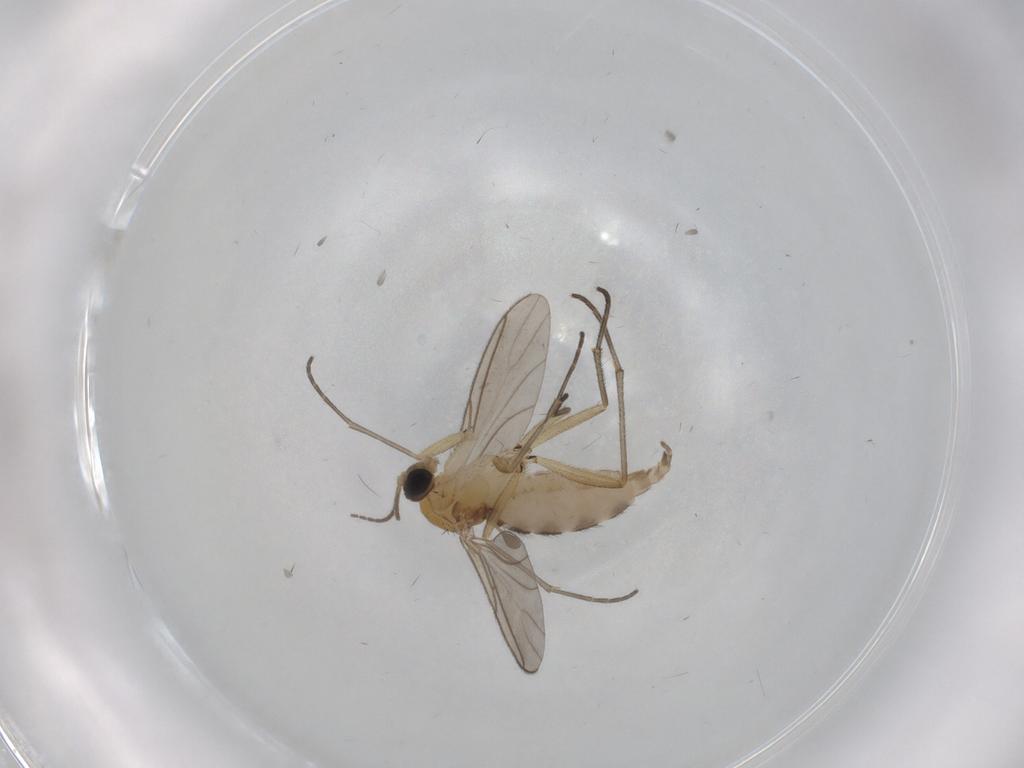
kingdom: Animalia
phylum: Arthropoda
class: Insecta
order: Diptera
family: Sciaridae
